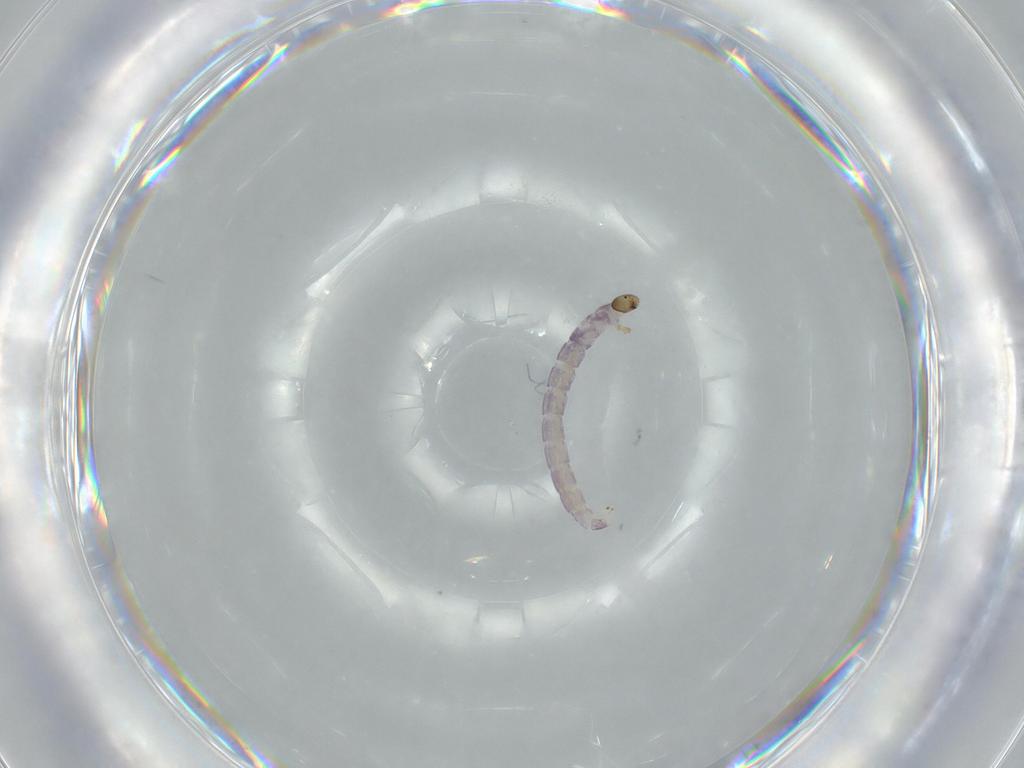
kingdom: Animalia
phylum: Arthropoda
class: Insecta
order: Diptera
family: Chironomidae
